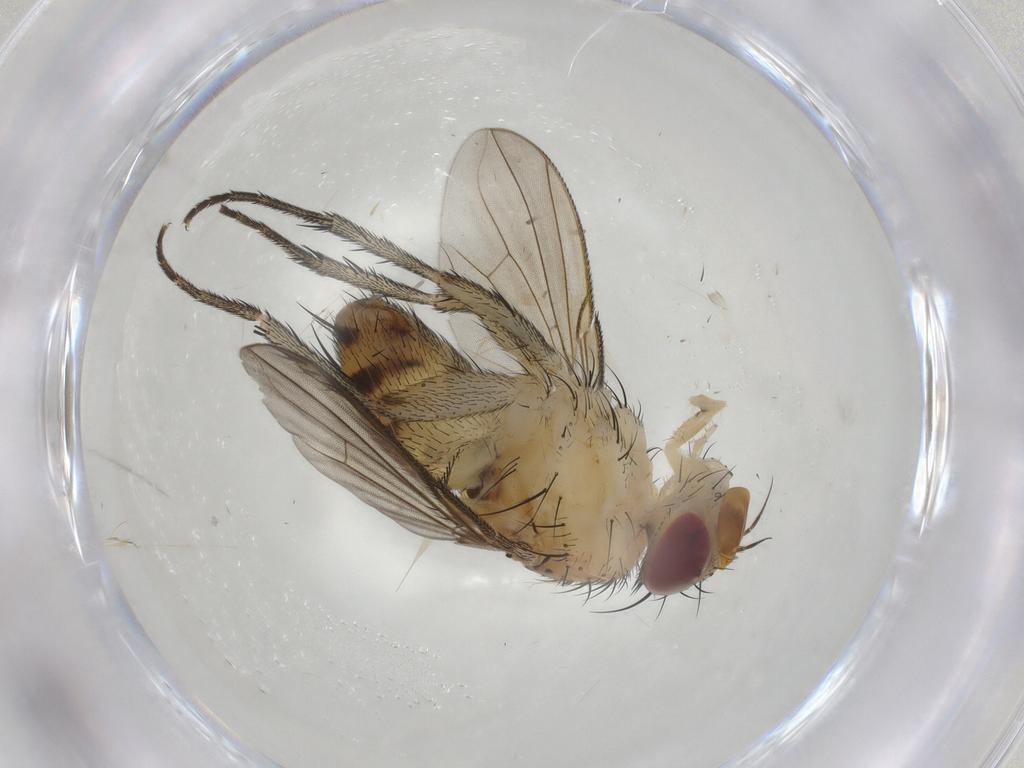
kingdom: Animalia
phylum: Arthropoda
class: Insecta
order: Diptera
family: Tachinidae
